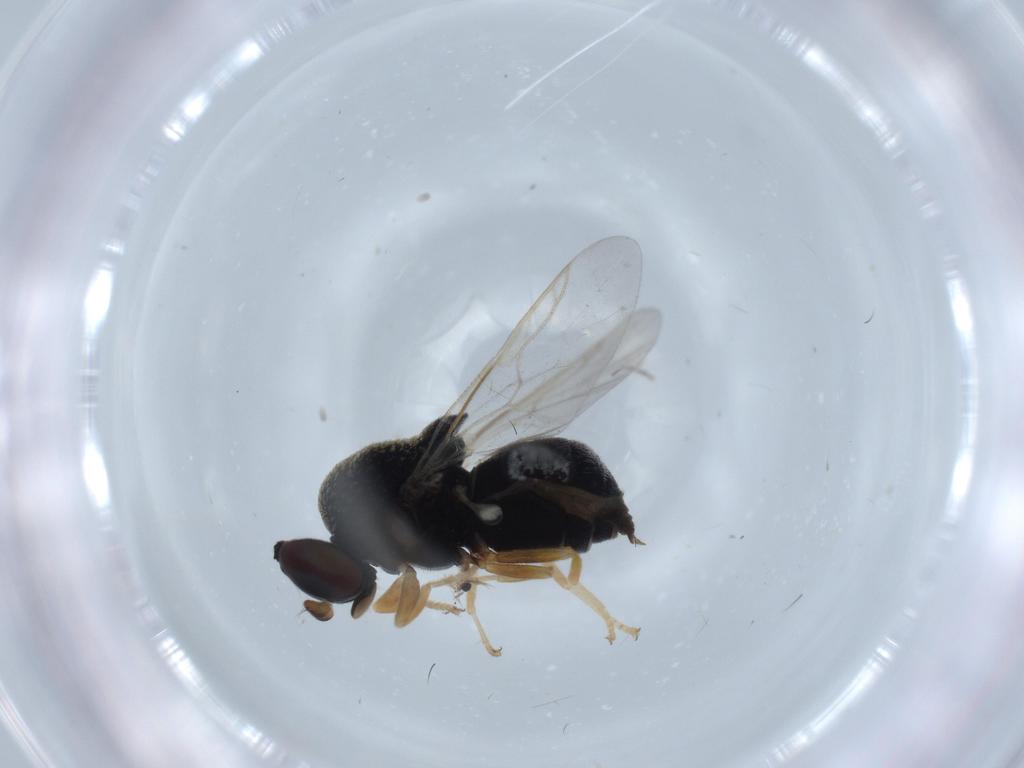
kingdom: Animalia
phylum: Arthropoda
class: Insecta
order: Diptera
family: Stratiomyidae
